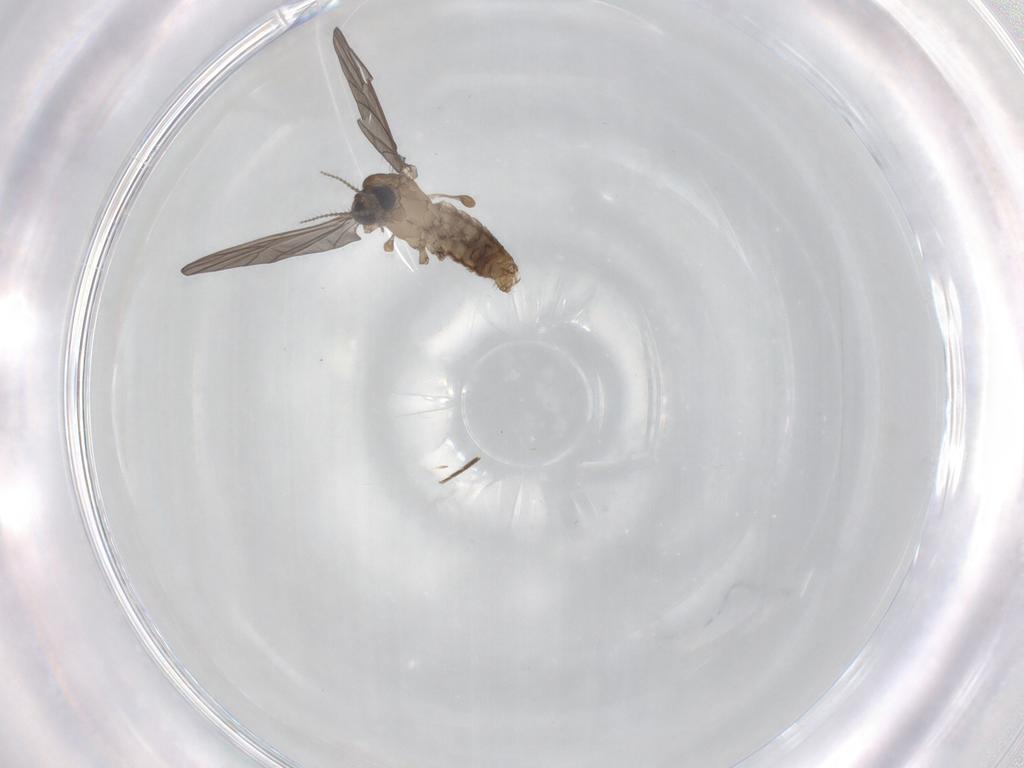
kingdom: Animalia
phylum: Arthropoda
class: Insecta
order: Diptera
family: Limoniidae
